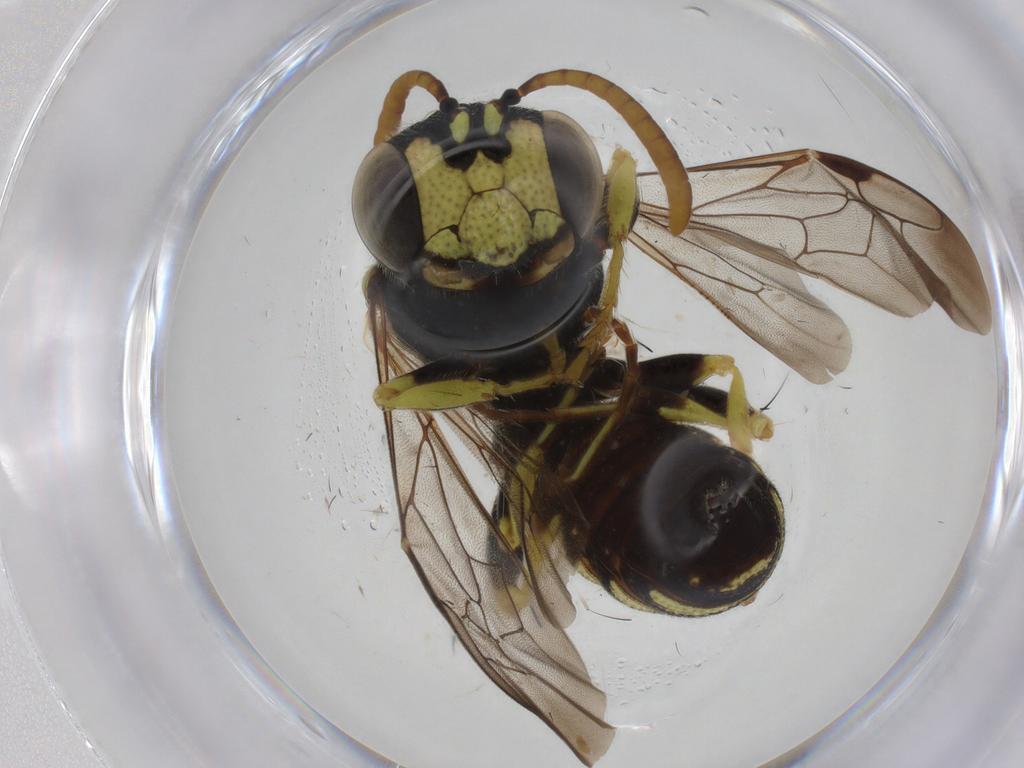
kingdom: Animalia
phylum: Arthropoda
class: Insecta
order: Hymenoptera
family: Philanthidae
